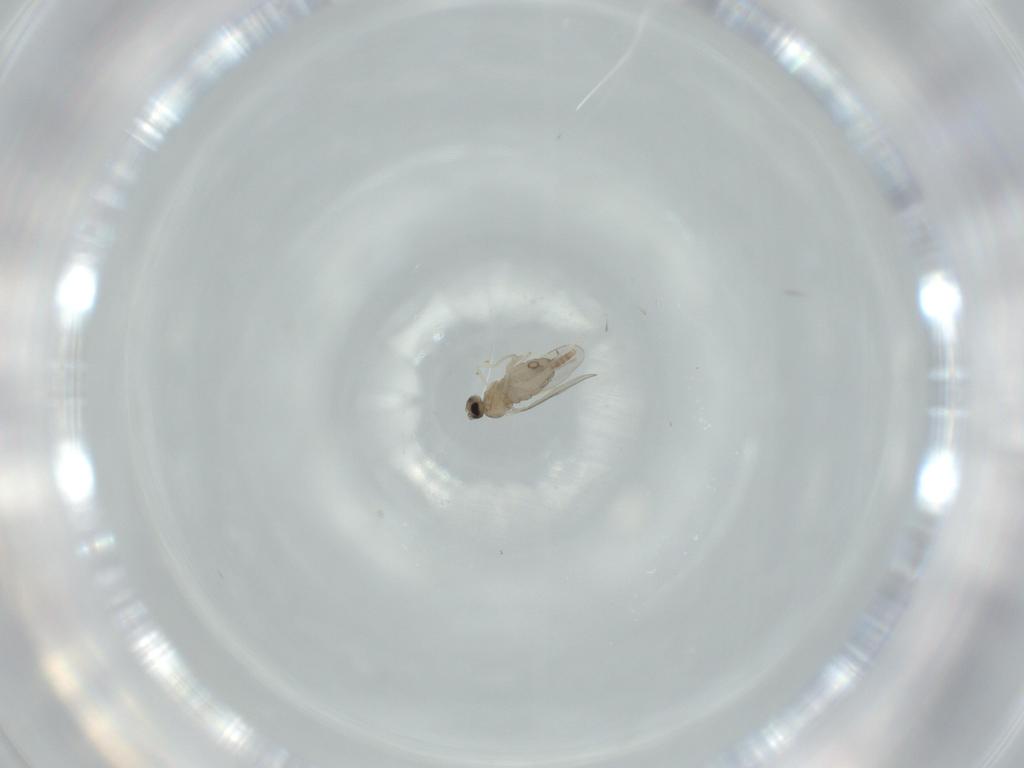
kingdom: Animalia
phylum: Arthropoda
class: Insecta
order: Diptera
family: Cecidomyiidae
